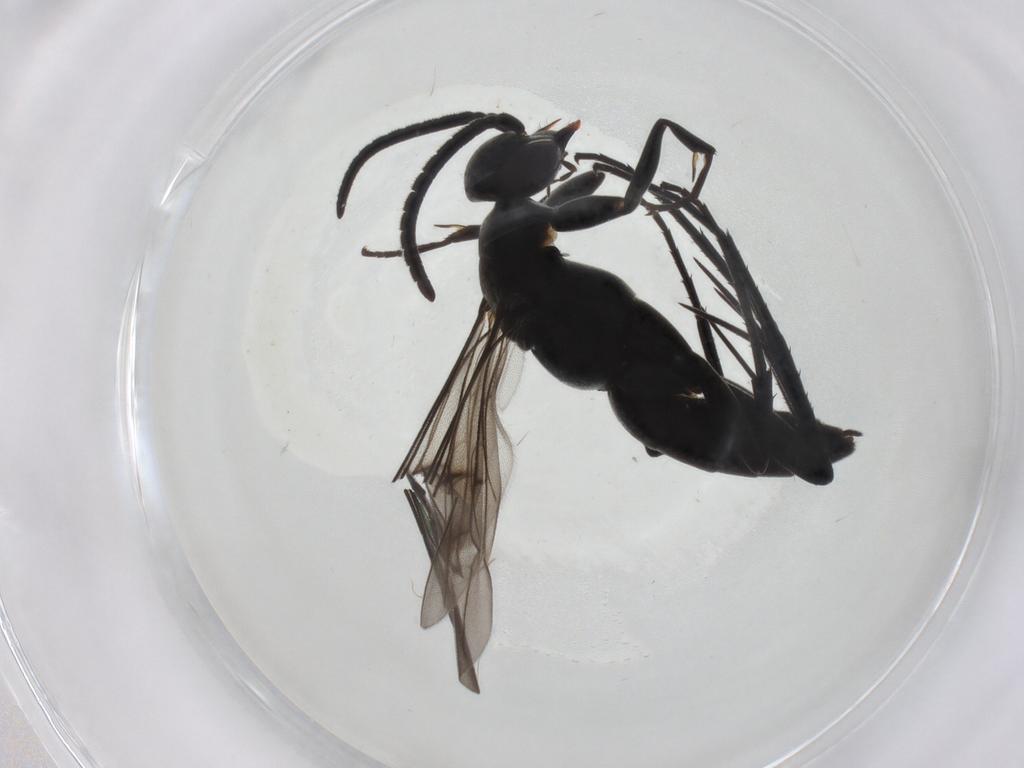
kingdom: Animalia
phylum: Arthropoda
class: Insecta
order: Hymenoptera
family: Pompilidae
